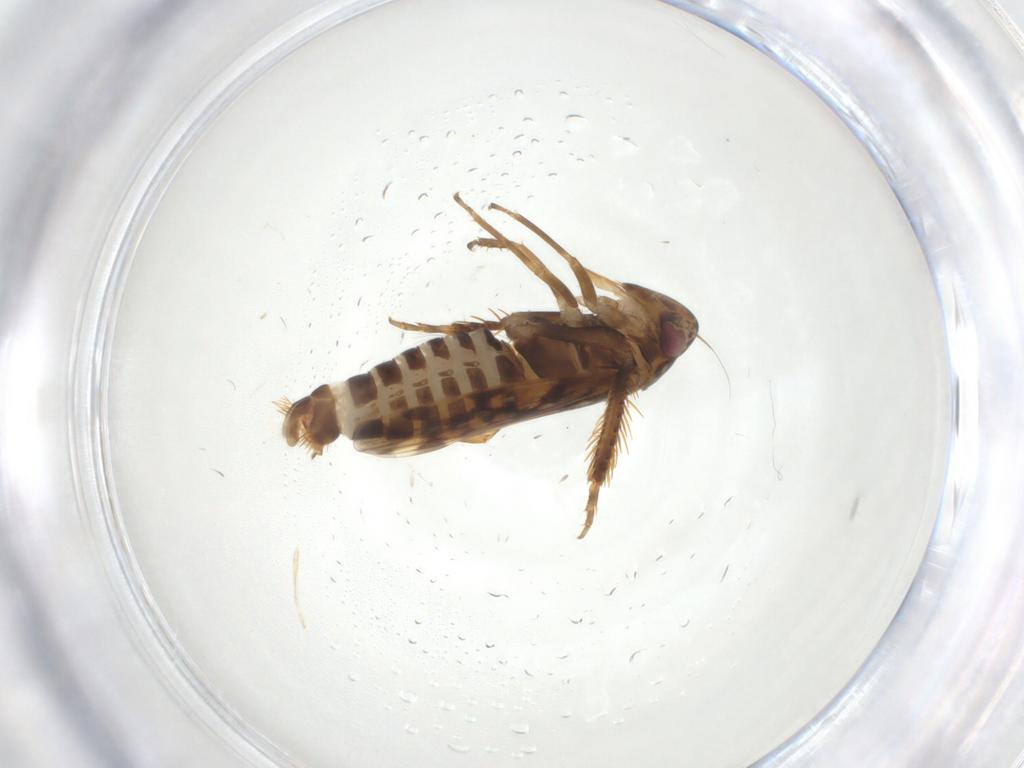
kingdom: Animalia
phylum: Arthropoda
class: Insecta
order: Hemiptera
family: Cicadellidae
